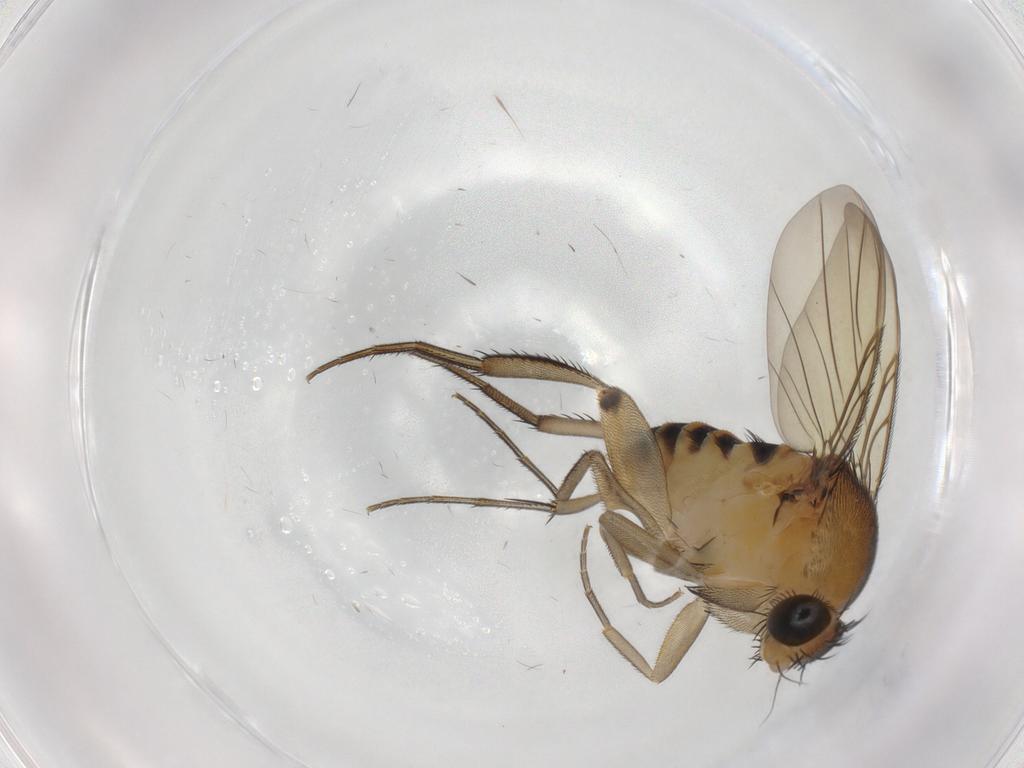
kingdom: Animalia
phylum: Arthropoda
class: Insecta
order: Diptera
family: Phoridae
